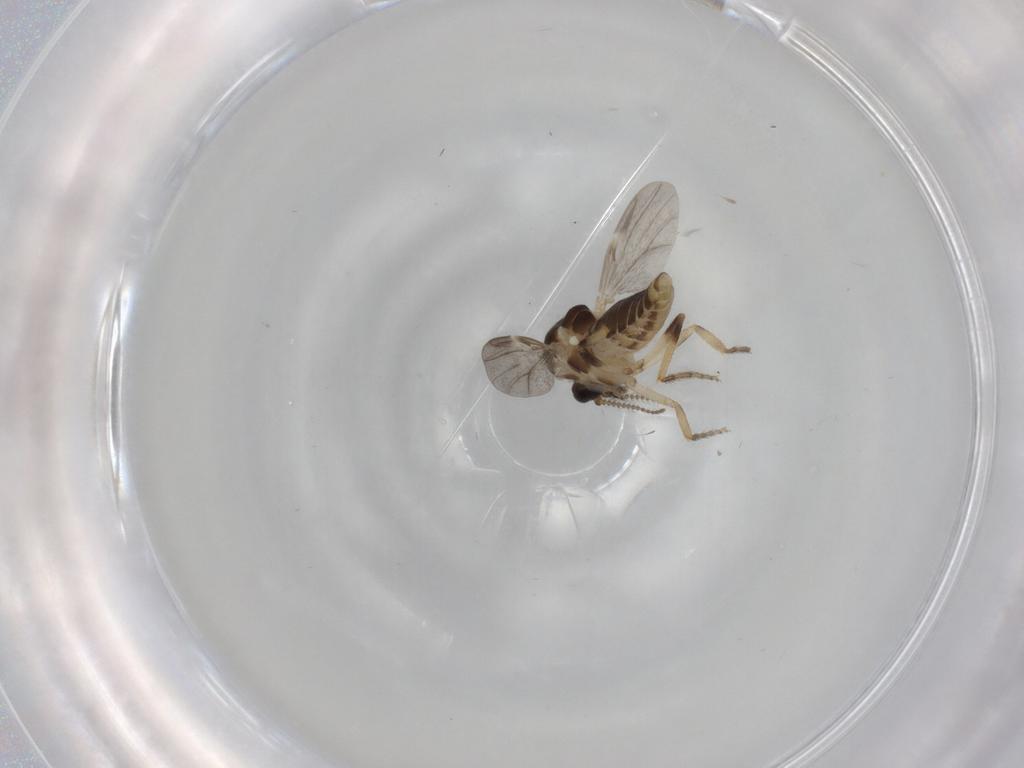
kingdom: Animalia
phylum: Arthropoda
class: Insecta
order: Diptera
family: Ceratopogonidae
